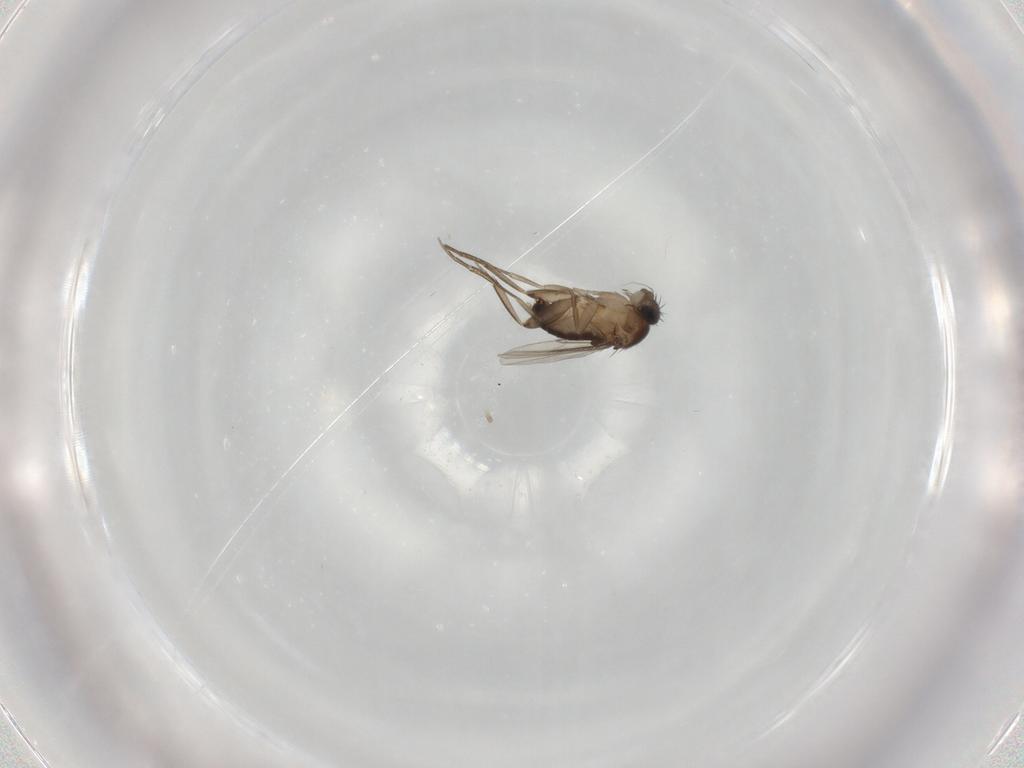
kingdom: Animalia
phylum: Arthropoda
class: Insecta
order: Diptera
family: Phoridae
